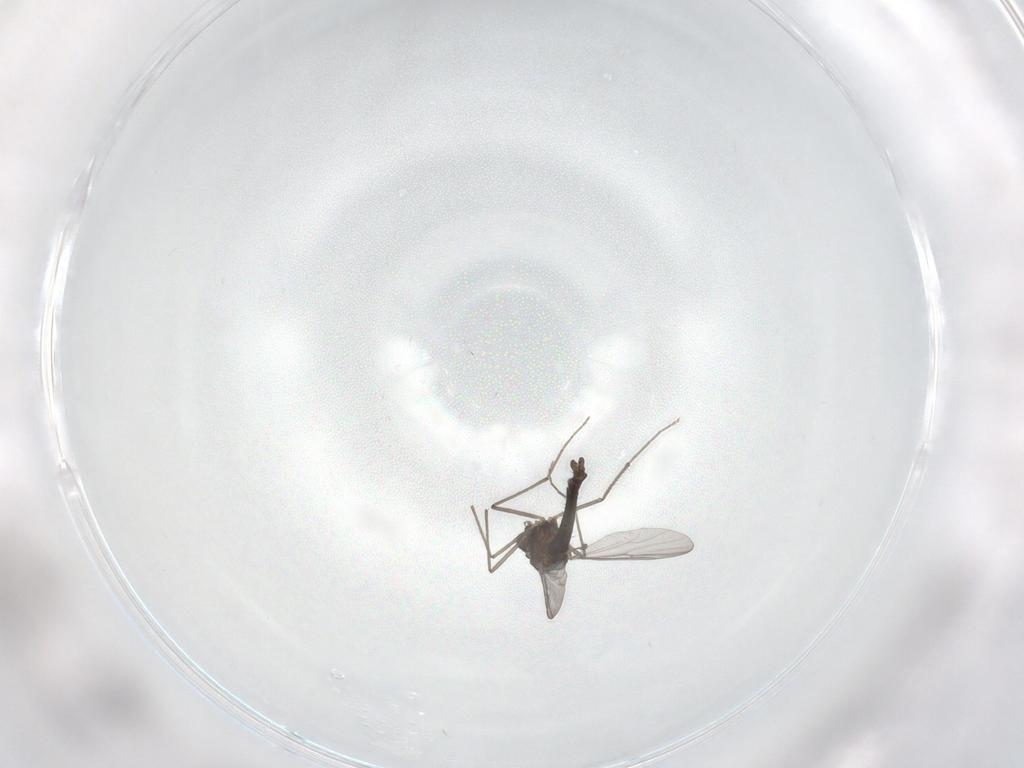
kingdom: Animalia
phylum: Arthropoda
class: Insecta
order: Diptera
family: Chironomidae
